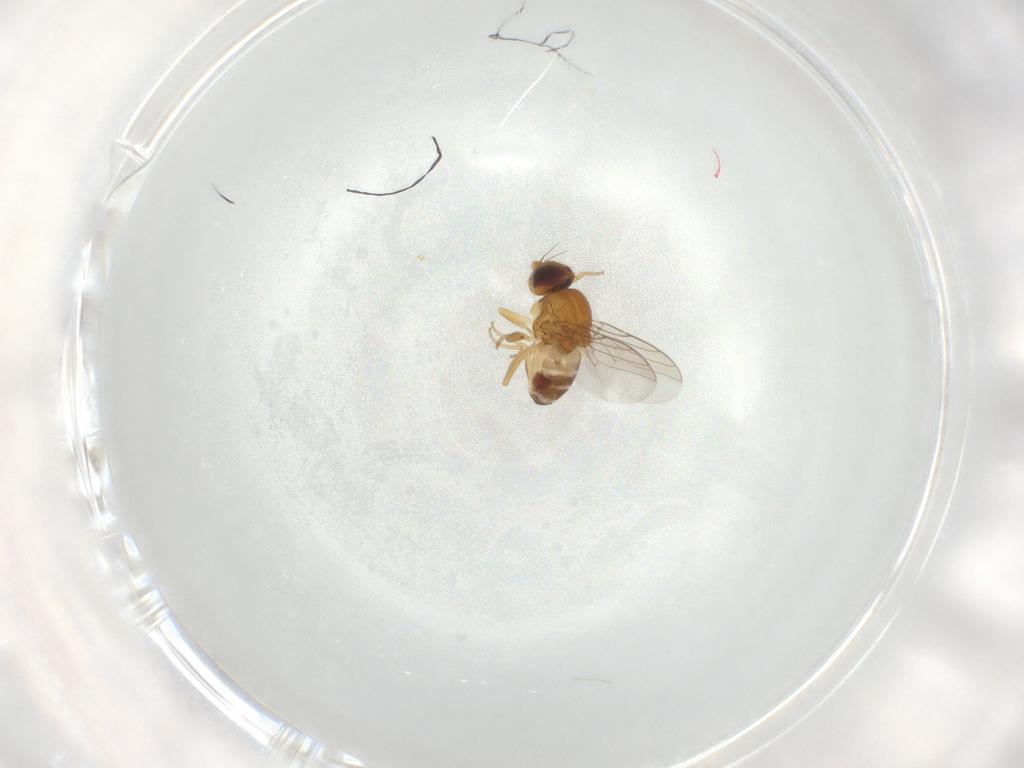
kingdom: Animalia
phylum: Arthropoda
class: Insecta
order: Diptera
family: Chloropidae
